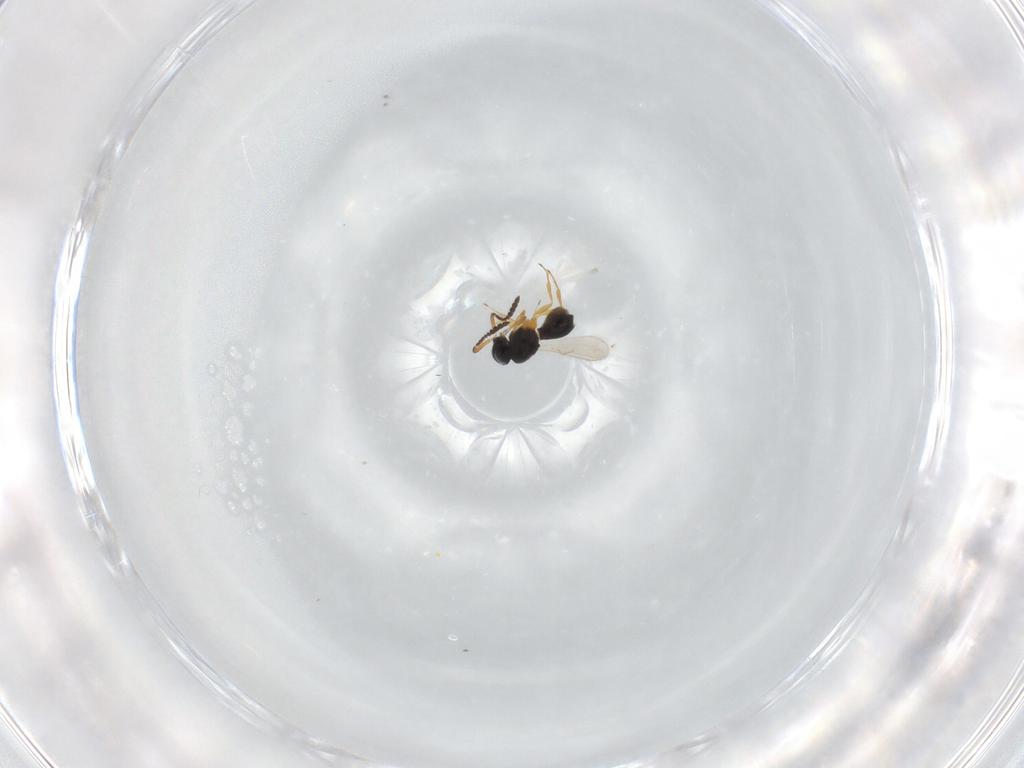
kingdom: Animalia
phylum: Arthropoda
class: Insecta
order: Hymenoptera
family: Scelionidae
